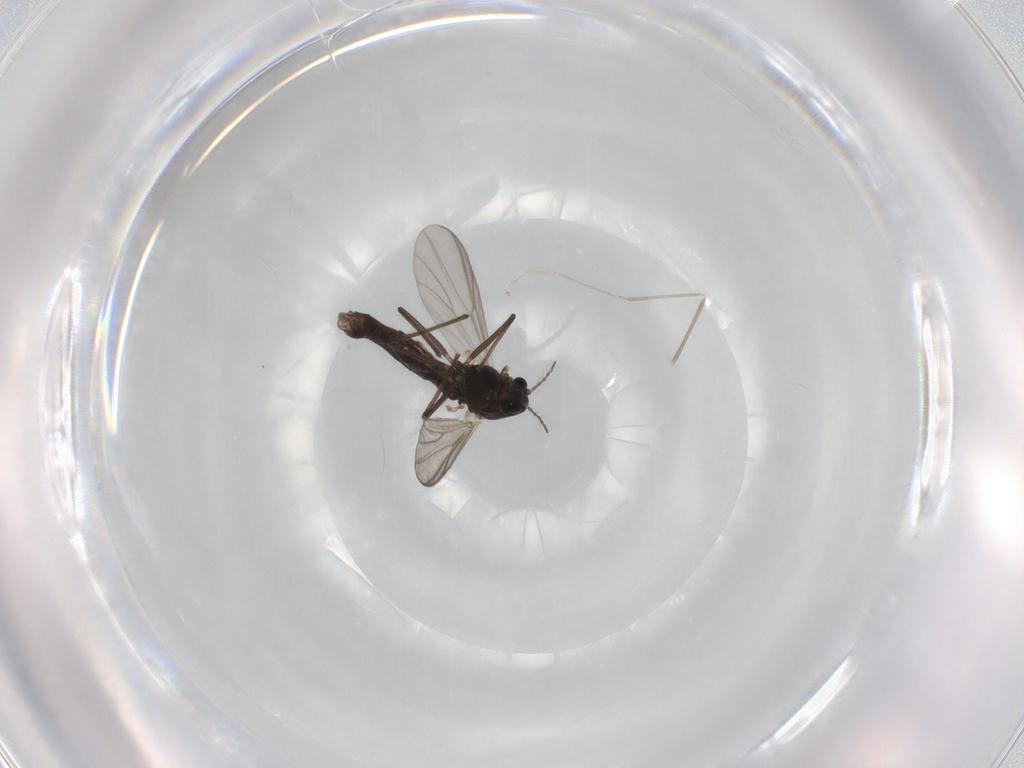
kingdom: Animalia
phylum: Arthropoda
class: Insecta
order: Diptera
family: Chironomidae
